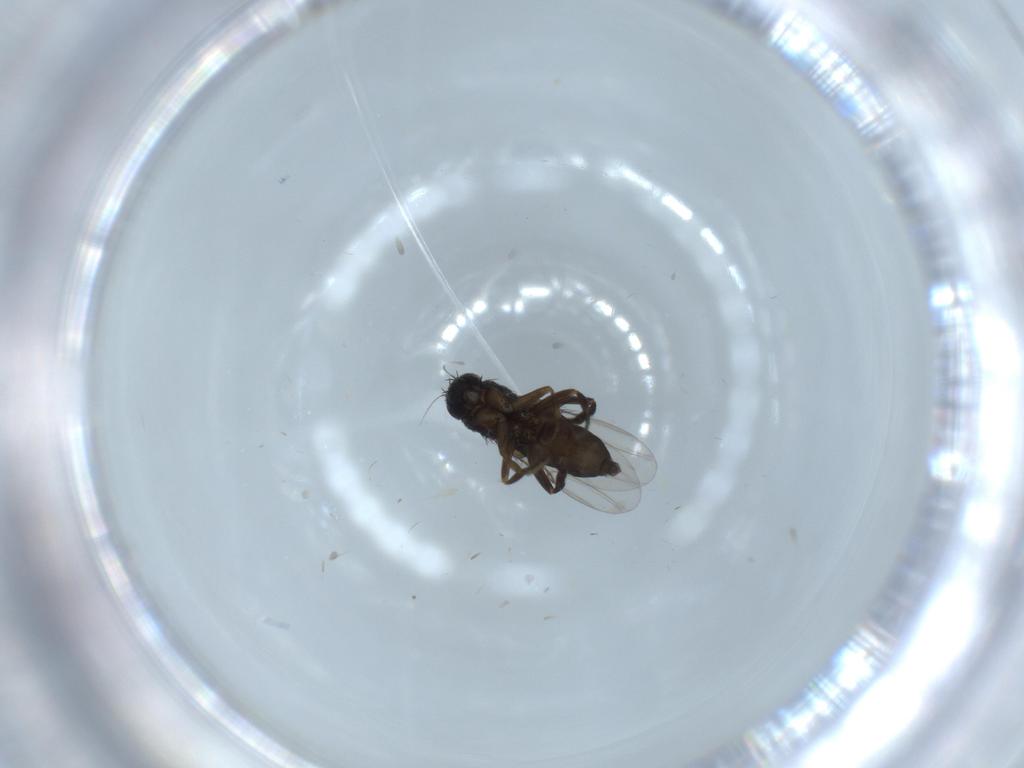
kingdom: Animalia
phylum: Arthropoda
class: Insecta
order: Diptera
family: Phoridae
